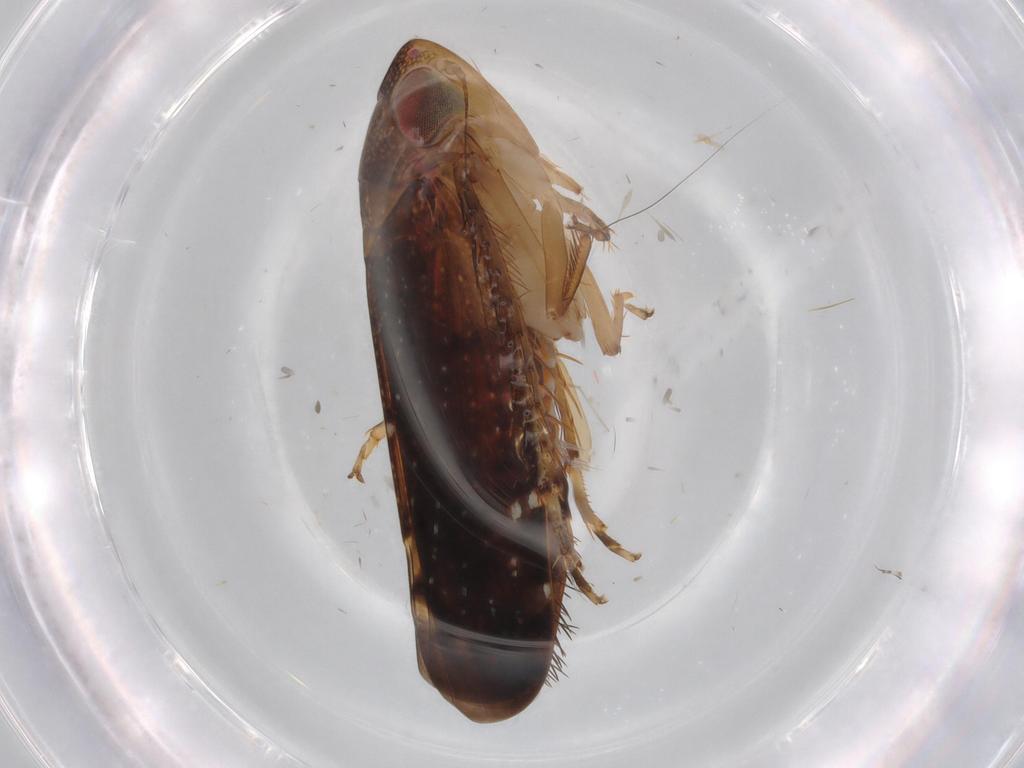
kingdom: Animalia
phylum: Arthropoda
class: Insecta
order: Hemiptera
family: Cicadellidae
